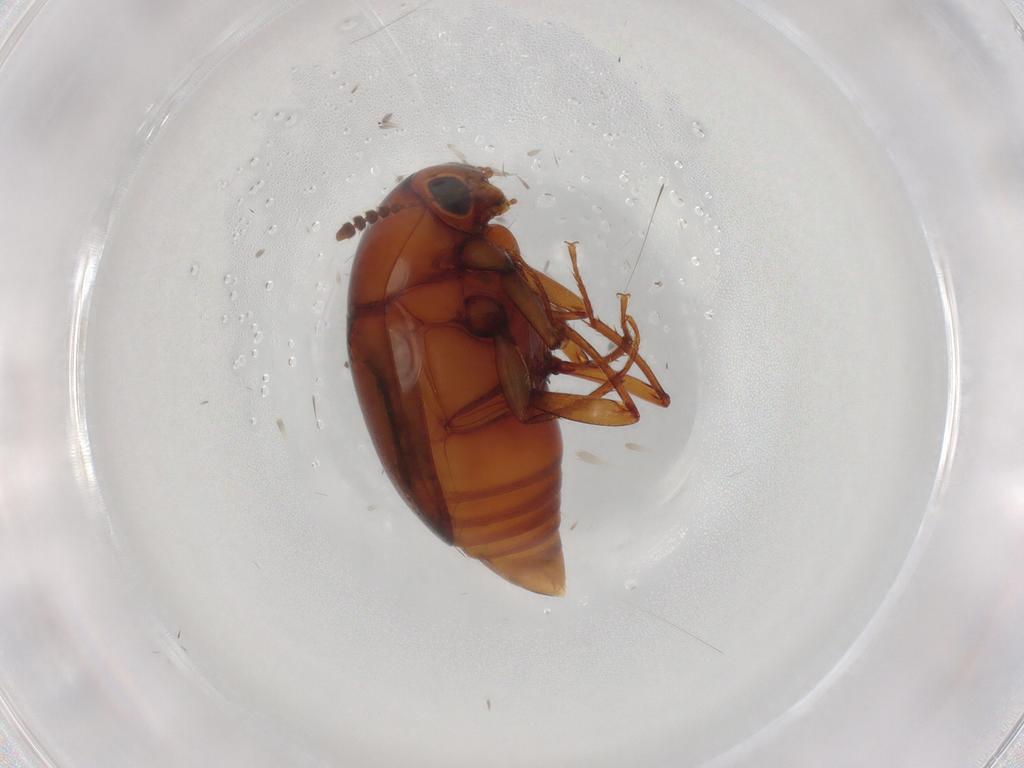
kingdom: Animalia
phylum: Arthropoda
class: Insecta
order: Coleoptera
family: Staphylinidae
